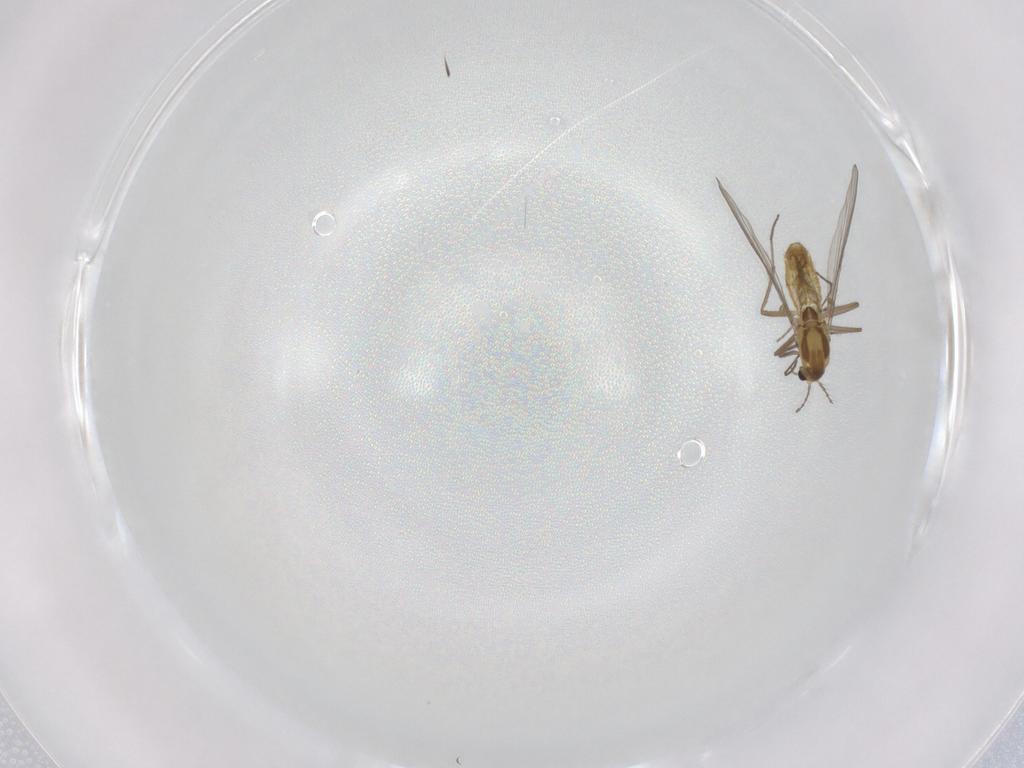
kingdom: Animalia
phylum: Arthropoda
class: Insecta
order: Diptera
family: Chironomidae
